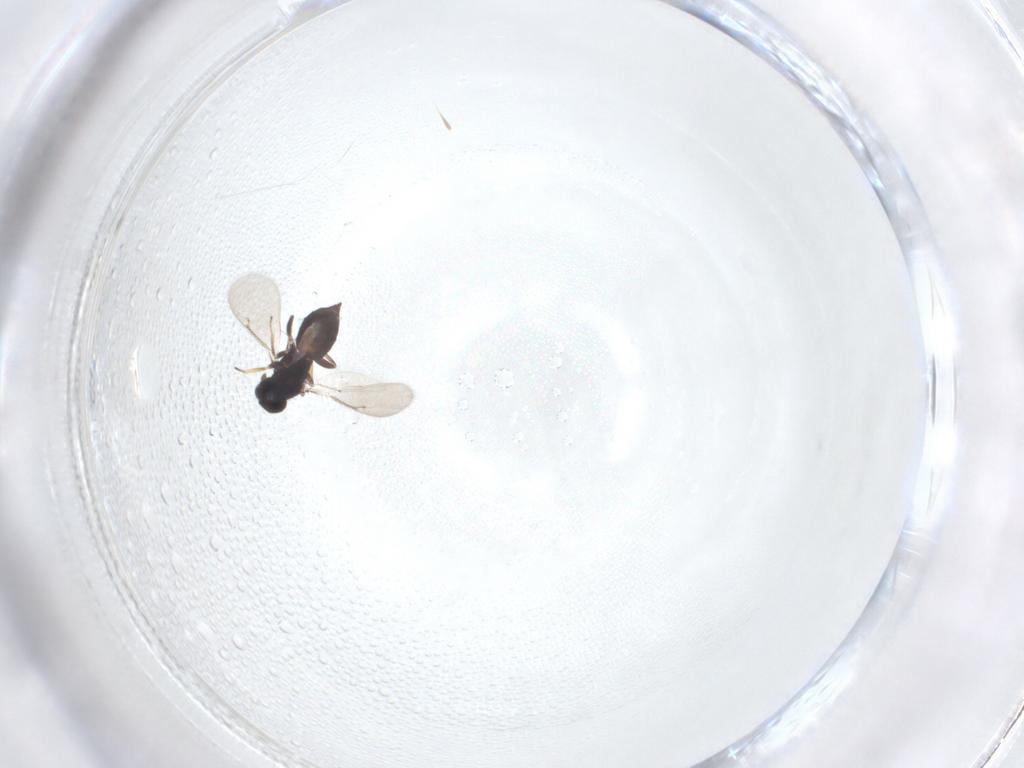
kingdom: Animalia
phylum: Arthropoda
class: Insecta
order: Hymenoptera
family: Eulophidae
